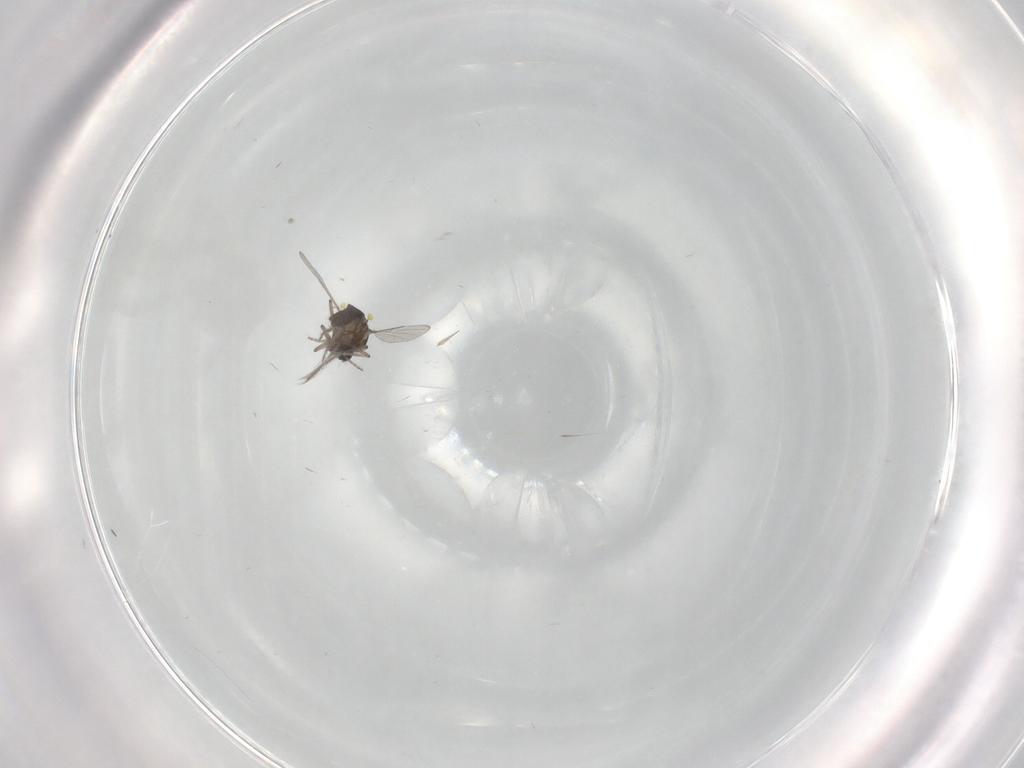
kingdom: Animalia
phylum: Arthropoda
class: Insecta
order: Diptera
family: Ceratopogonidae
